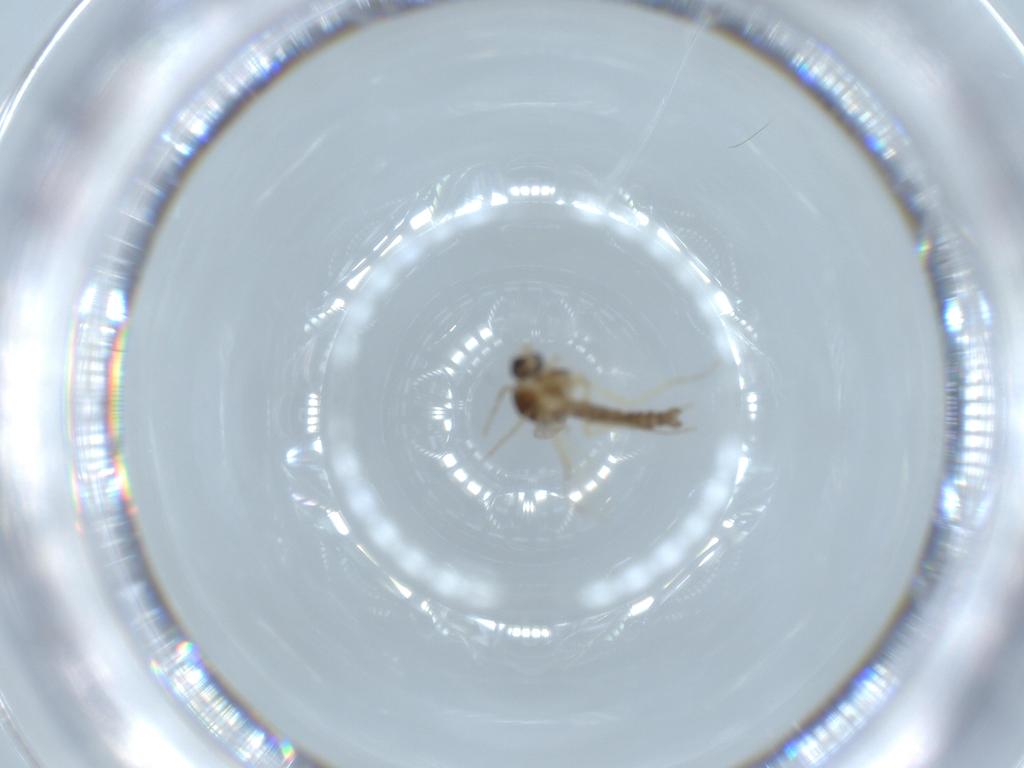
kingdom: Animalia
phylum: Arthropoda
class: Insecta
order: Diptera
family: Ceratopogonidae
